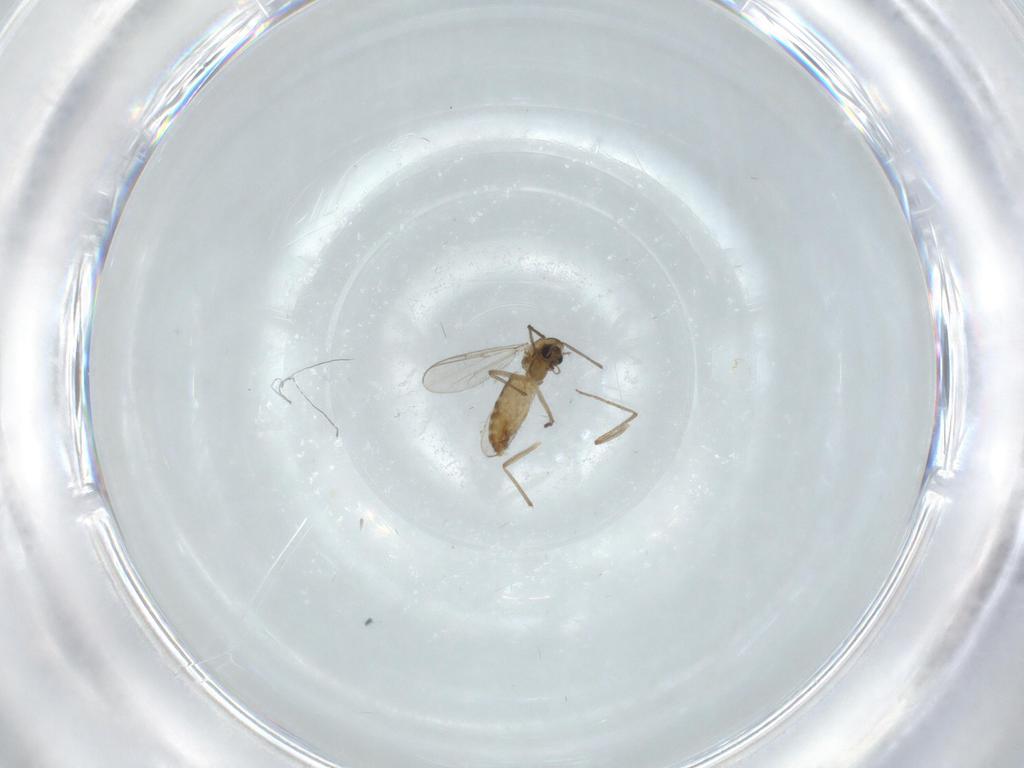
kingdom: Animalia
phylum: Arthropoda
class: Insecta
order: Diptera
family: Chironomidae
